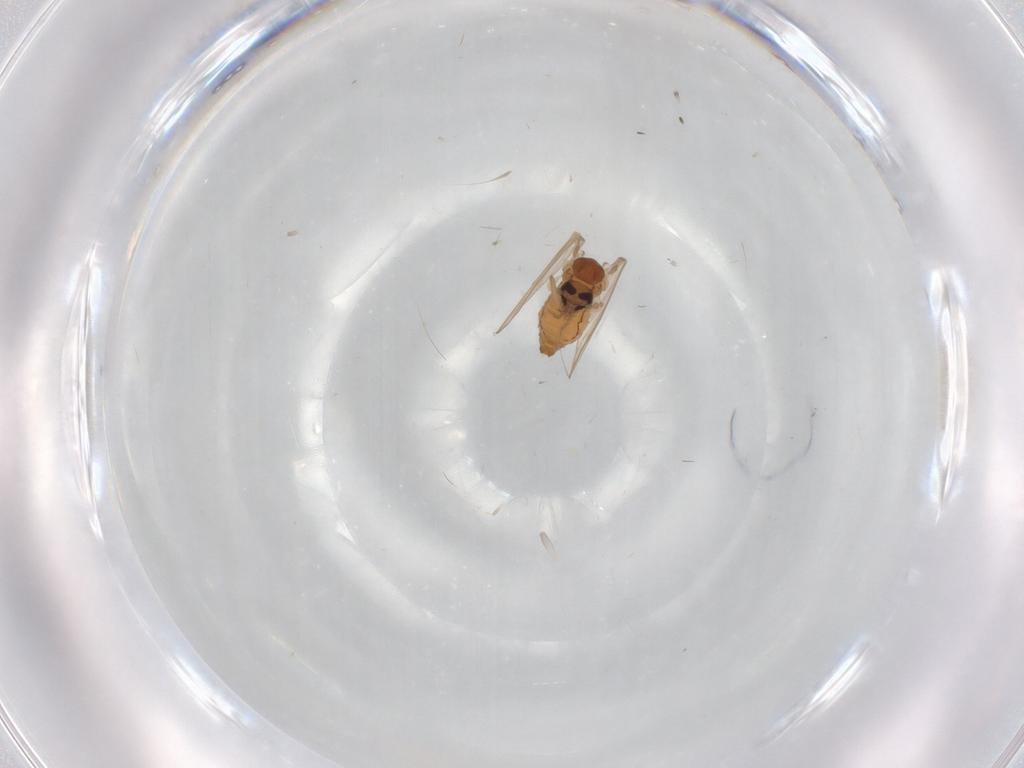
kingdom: Animalia
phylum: Arthropoda
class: Insecta
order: Diptera
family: Psychodidae
